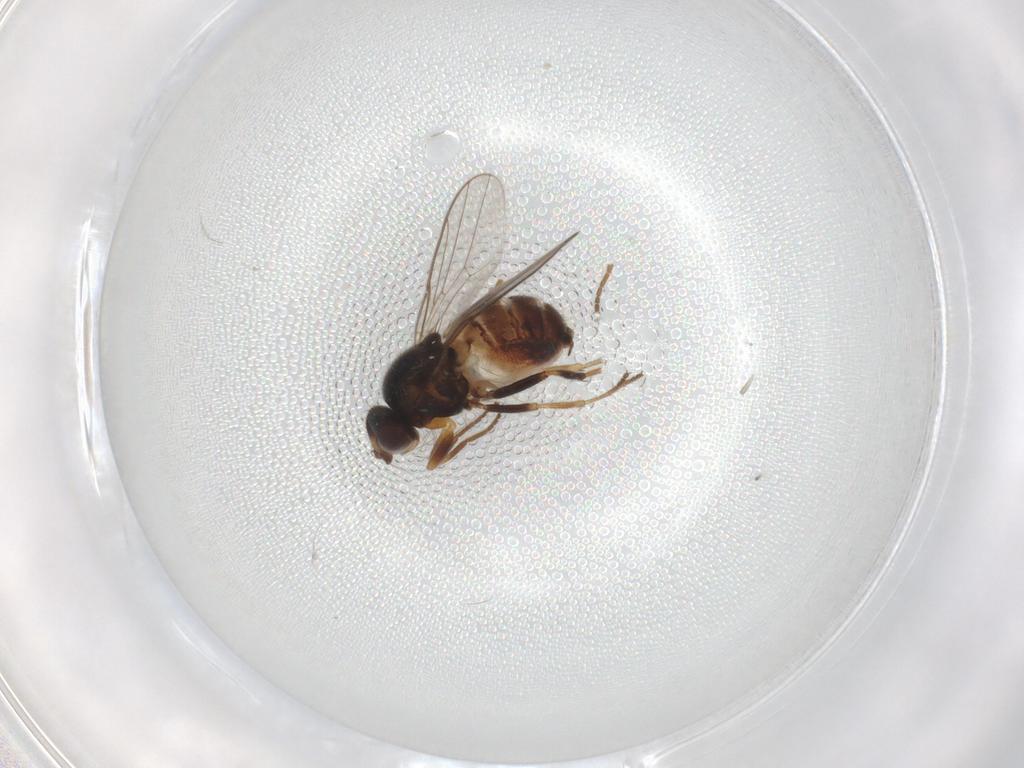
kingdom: Animalia
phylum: Arthropoda
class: Insecta
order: Diptera
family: Chloropidae
